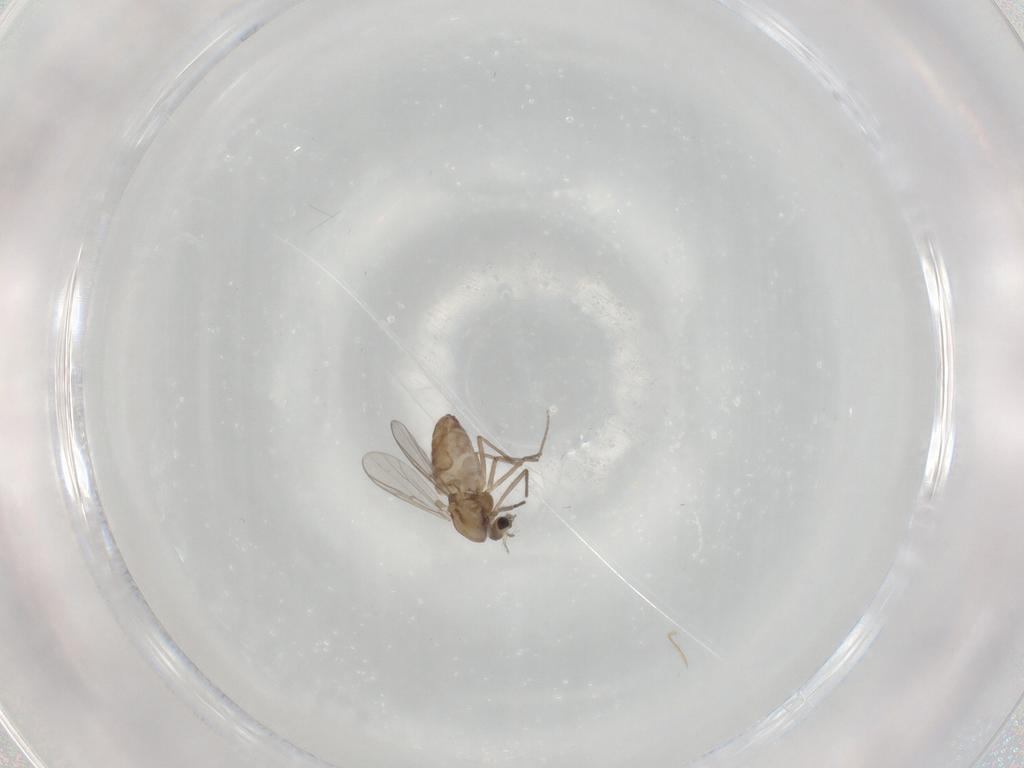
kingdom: Animalia
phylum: Arthropoda
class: Insecta
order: Diptera
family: Chironomidae
